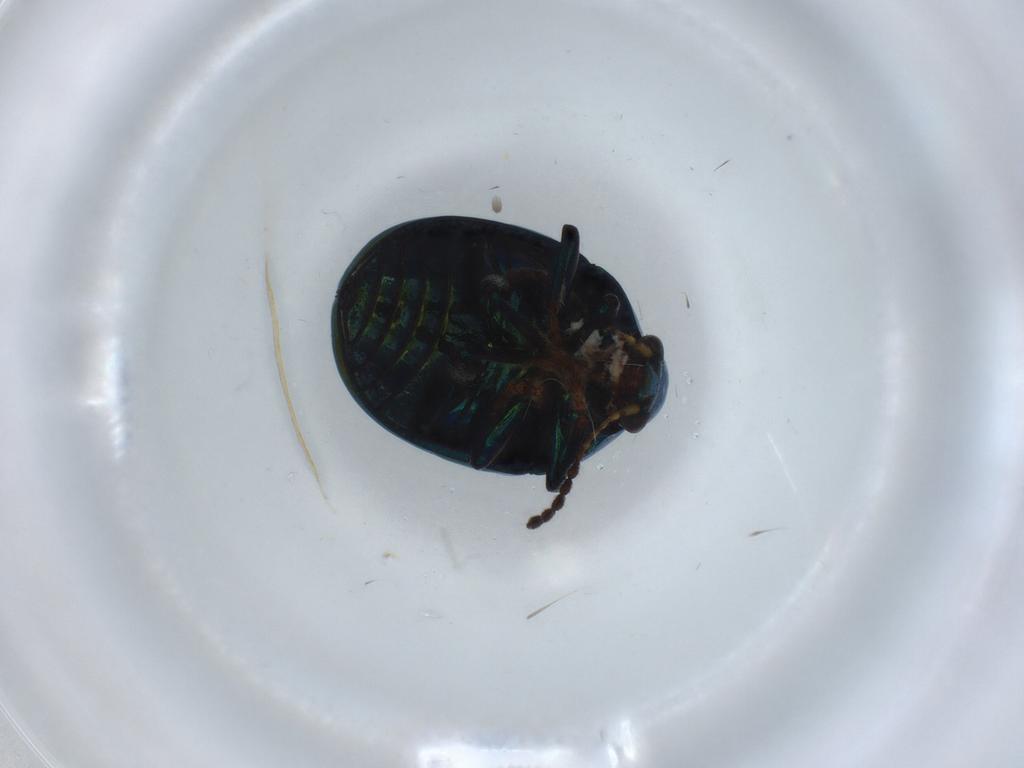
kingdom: Animalia
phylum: Arthropoda
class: Insecta
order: Coleoptera
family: Chrysomelidae
